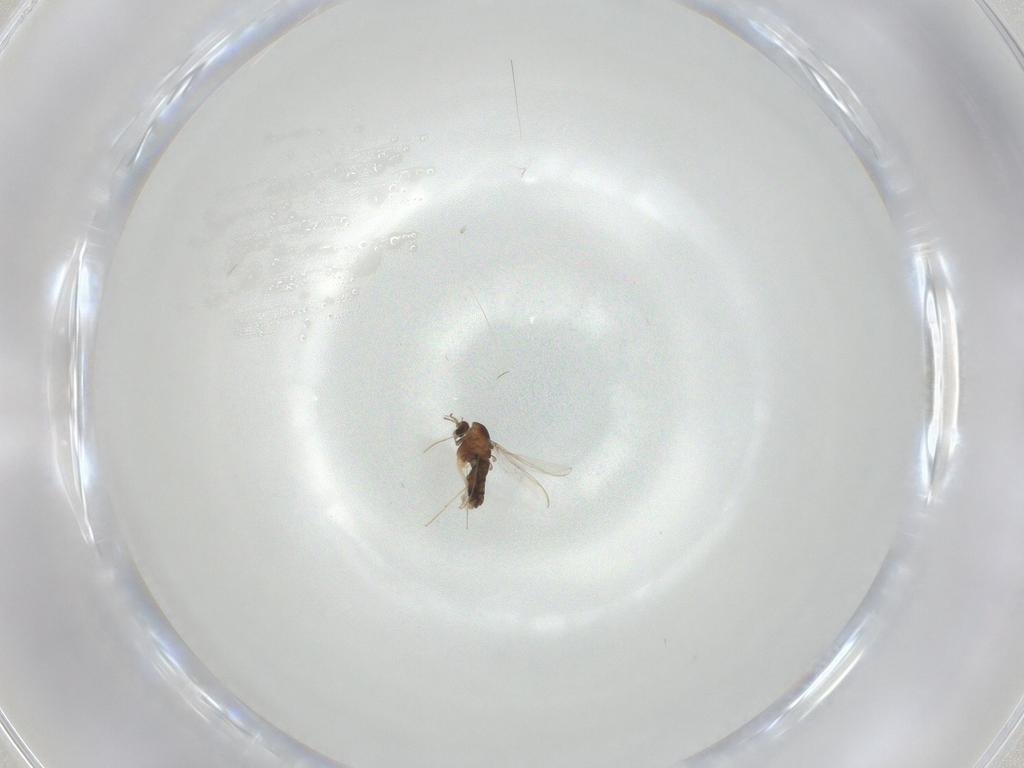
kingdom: Animalia
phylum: Arthropoda
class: Insecta
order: Diptera
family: Chironomidae
